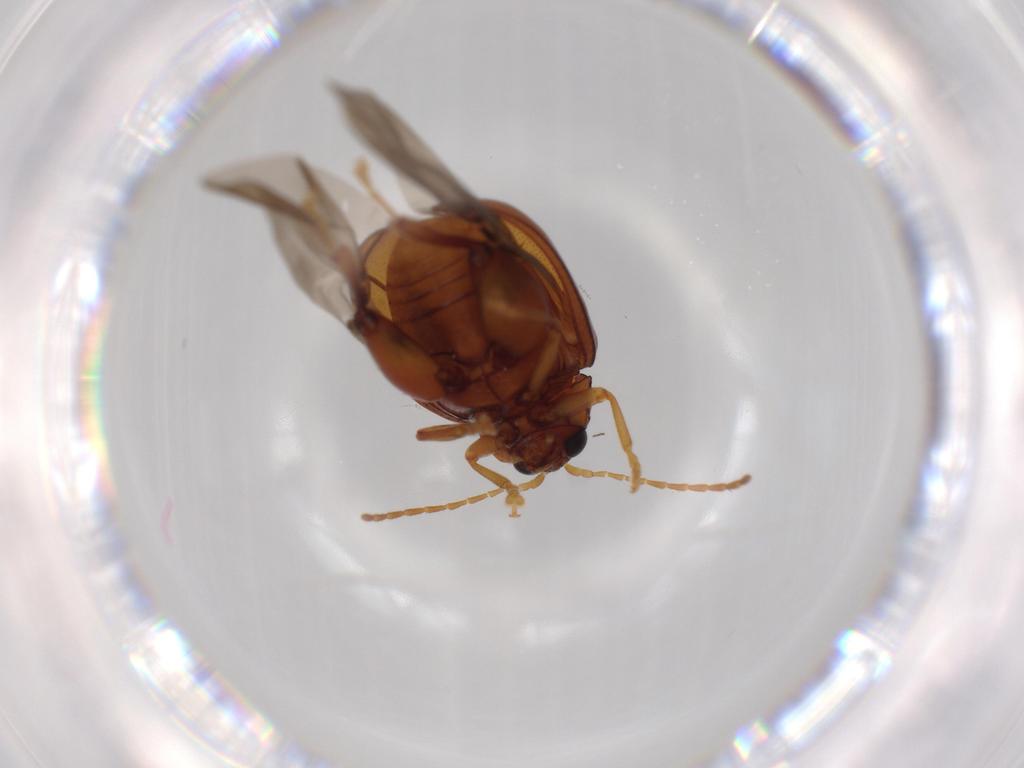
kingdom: Animalia
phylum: Arthropoda
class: Insecta
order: Coleoptera
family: Chrysomelidae
